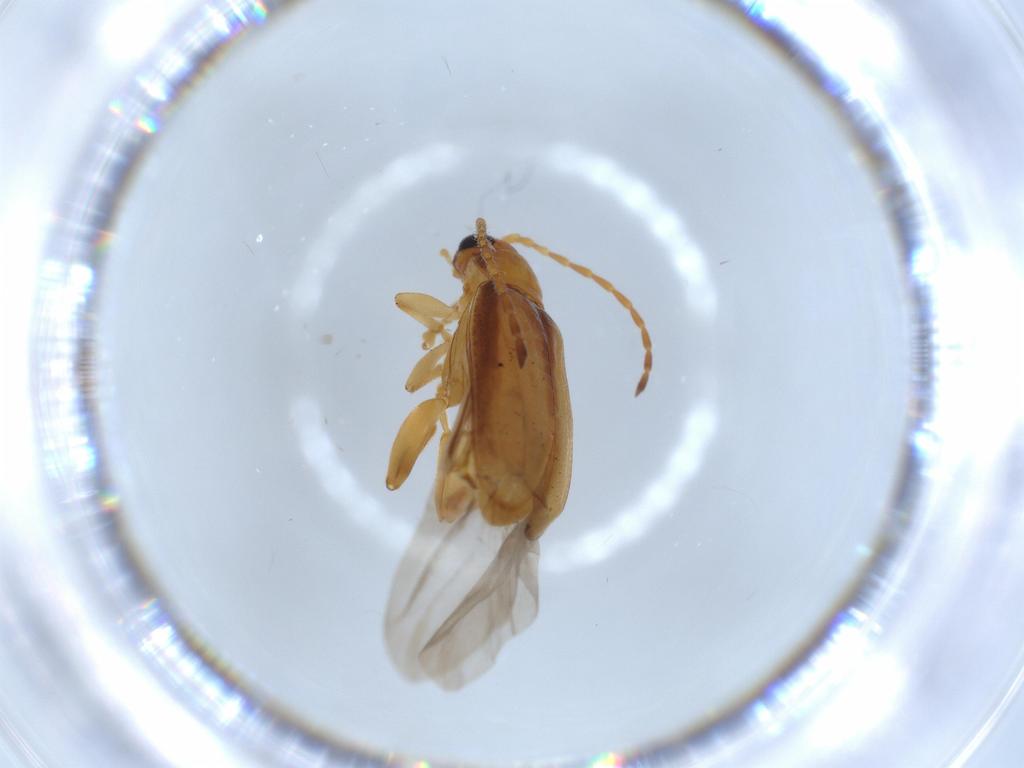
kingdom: Animalia
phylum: Arthropoda
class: Insecta
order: Coleoptera
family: Chrysomelidae
